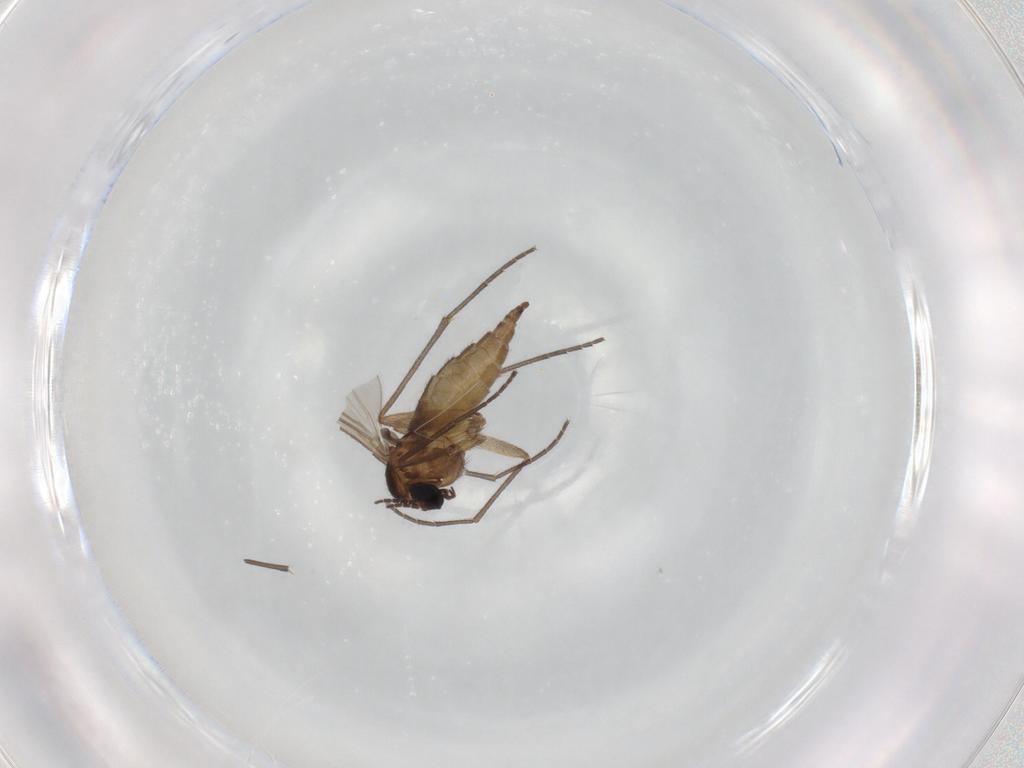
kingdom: Animalia
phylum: Arthropoda
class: Insecta
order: Diptera
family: Sciaridae
